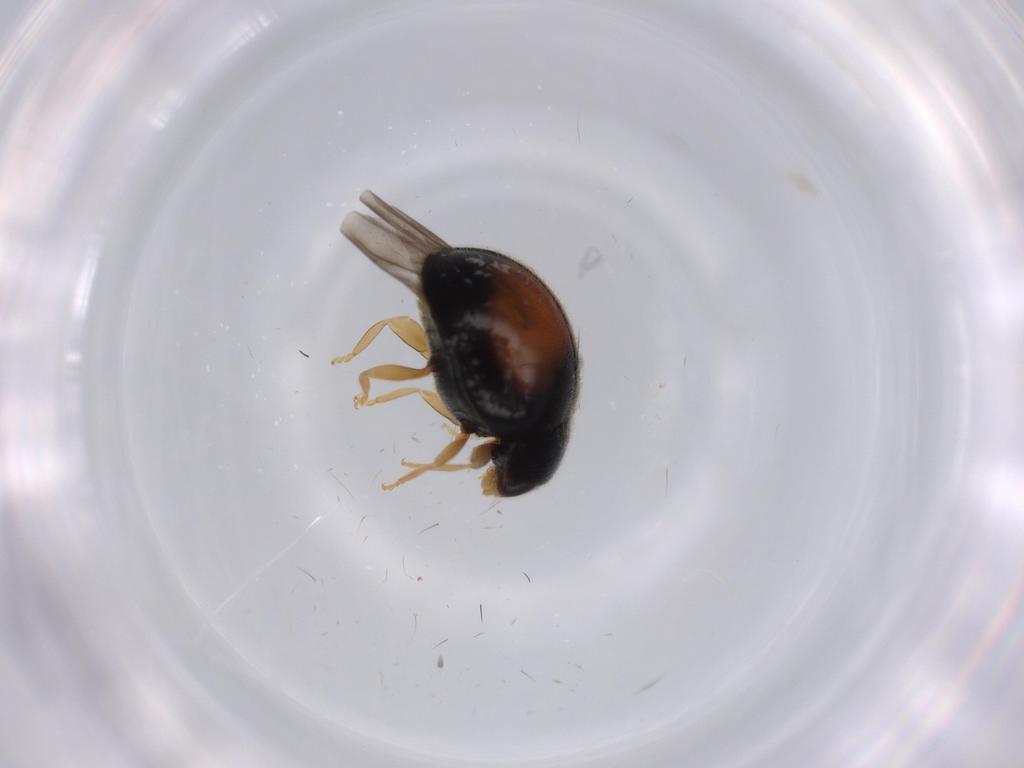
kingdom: Animalia
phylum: Arthropoda
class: Insecta
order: Coleoptera
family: Coccinellidae
